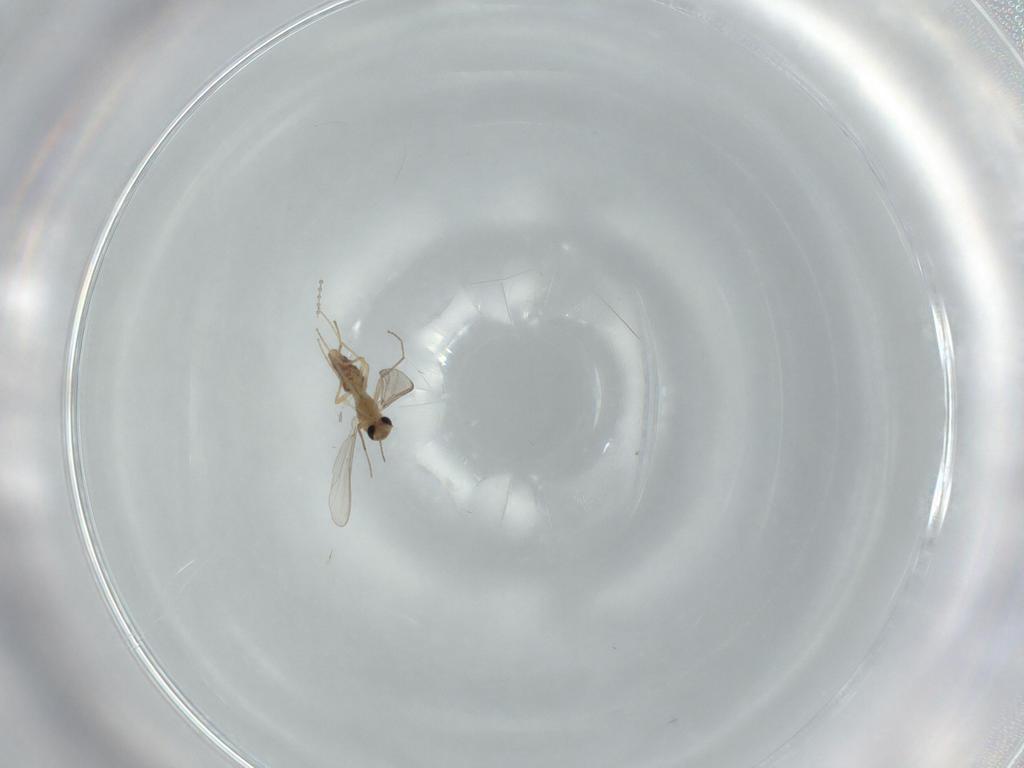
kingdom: Animalia
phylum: Arthropoda
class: Insecta
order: Diptera
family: Chironomidae
